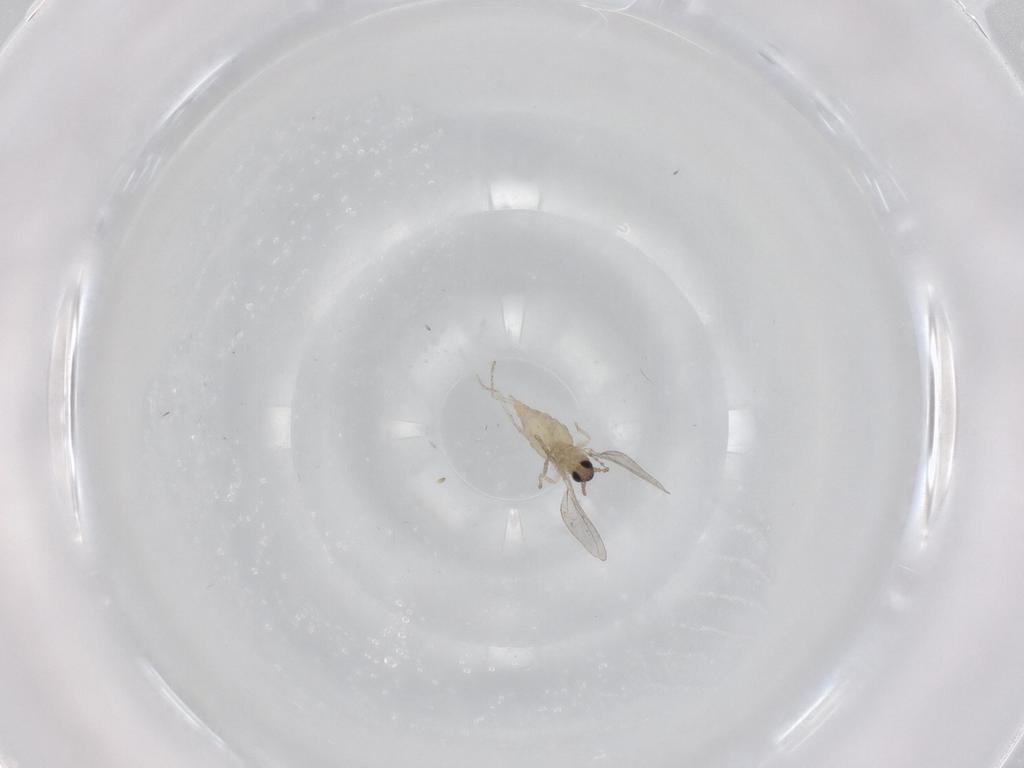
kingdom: Animalia
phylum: Arthropoda
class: Insecta
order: Diptera
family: Cecidomyiidae
